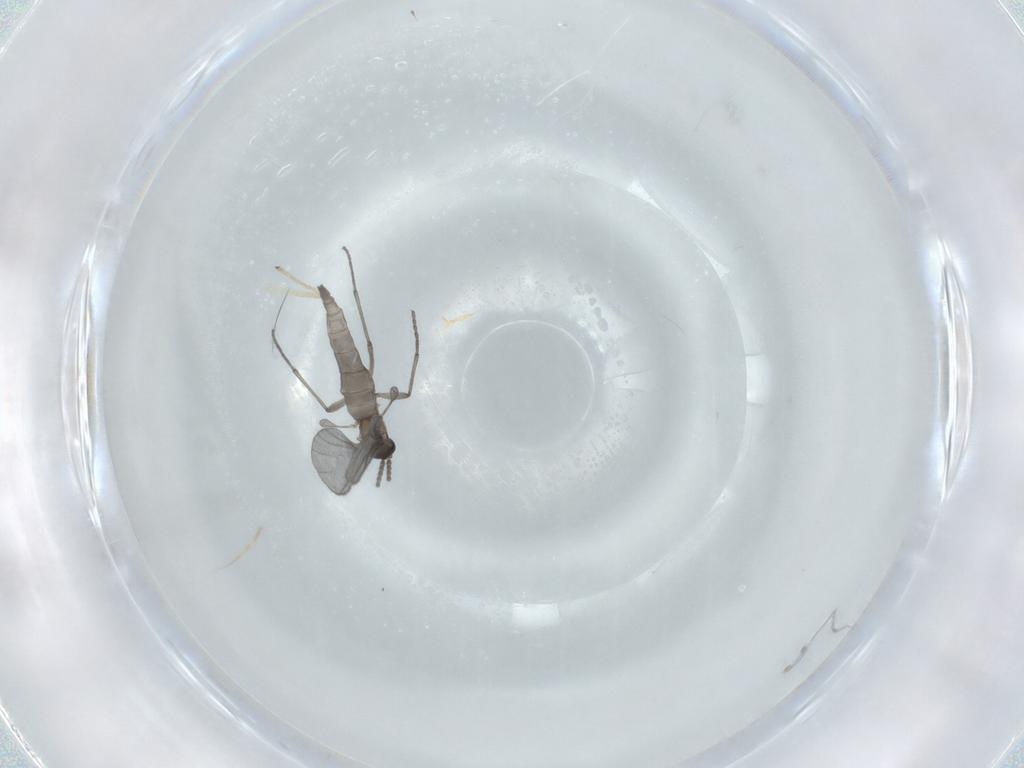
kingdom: Animalia
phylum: Arthropoda
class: Insecta
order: Diptera
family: Sciaridae
